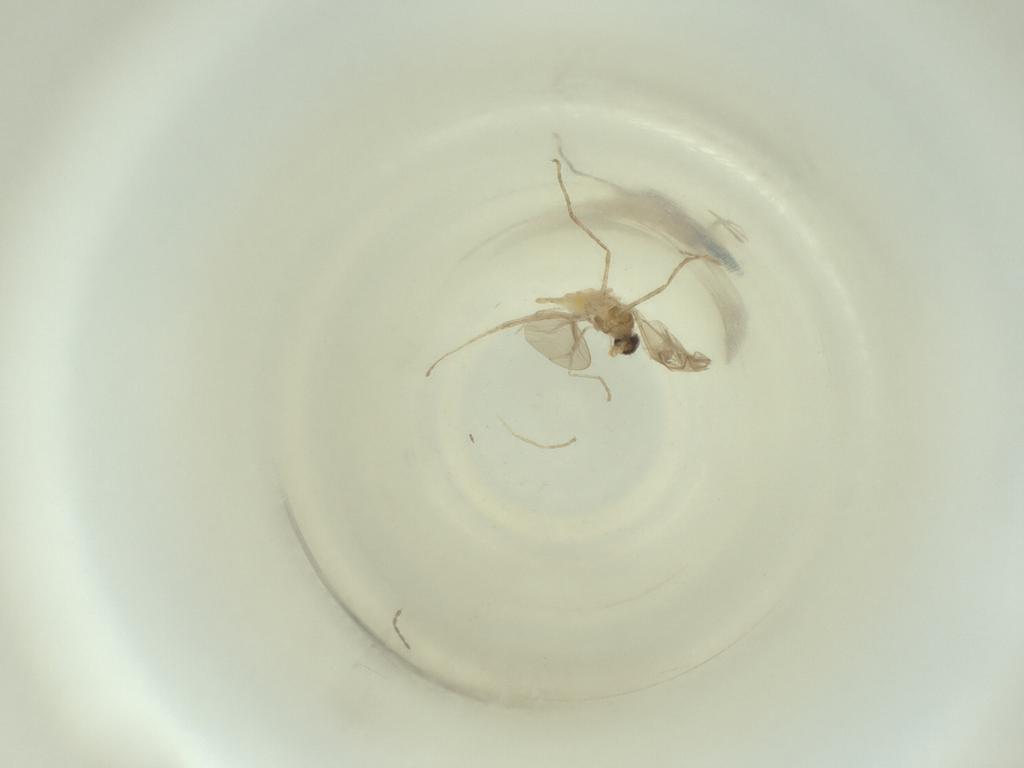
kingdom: Animalia
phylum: Arthropoda
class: Insecta
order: Diptera
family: Cecidomyiidae
